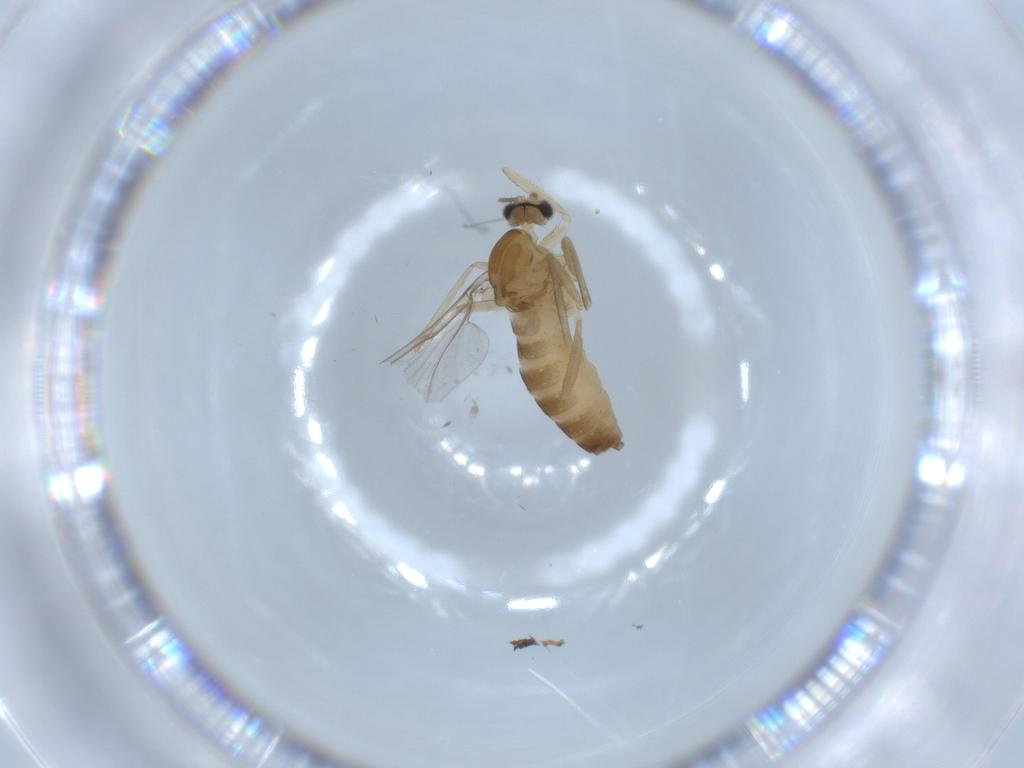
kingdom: Animalia
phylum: Arthropoda
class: Insecta
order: Diptera
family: Cecidomyiidae
